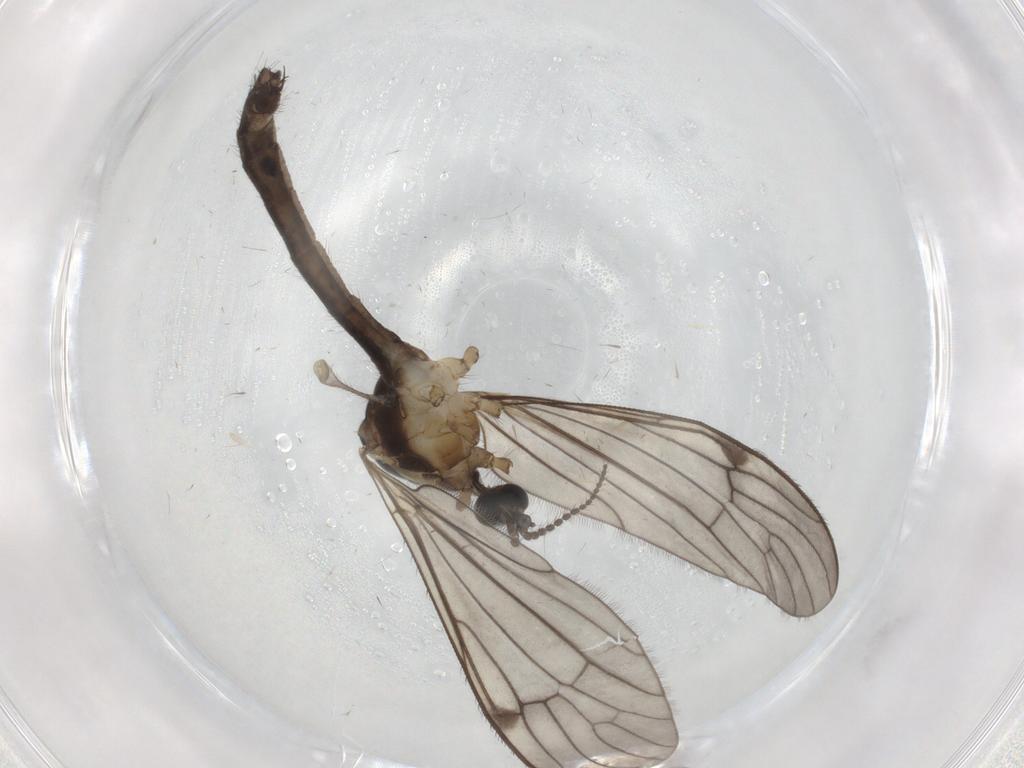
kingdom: Animalia
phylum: Arthropoda
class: Insecta
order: Diptera
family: Limoniidae
